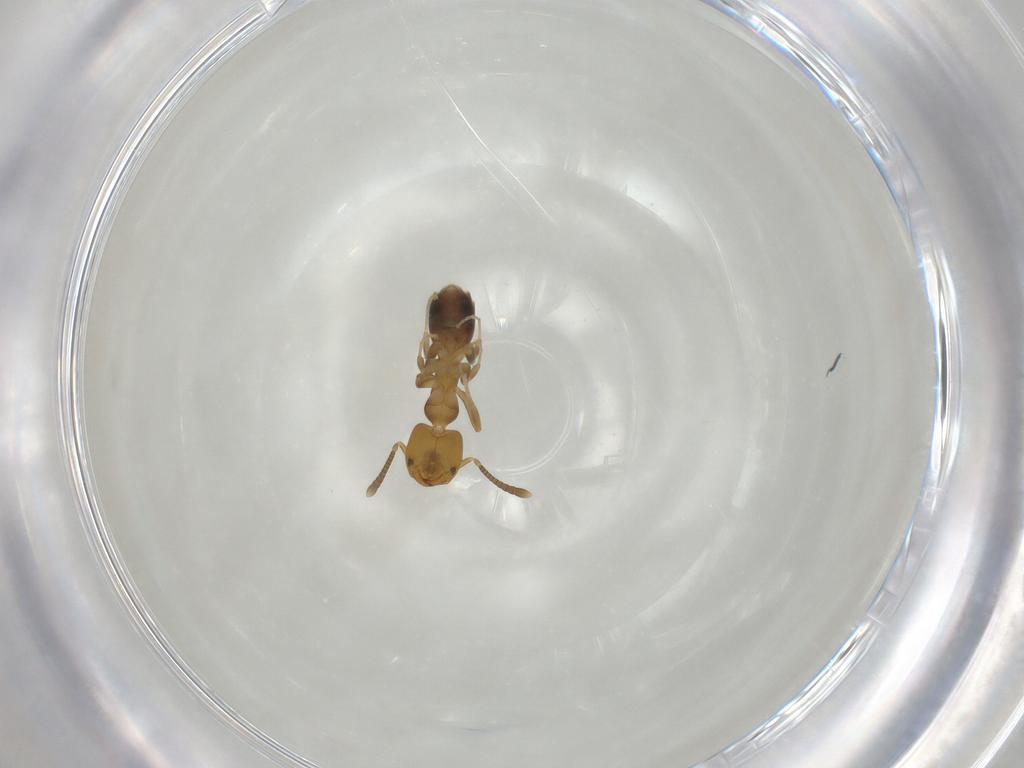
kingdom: Animalia
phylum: Arthropoda
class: Insecta
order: Hymenoptera
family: Formicidae
